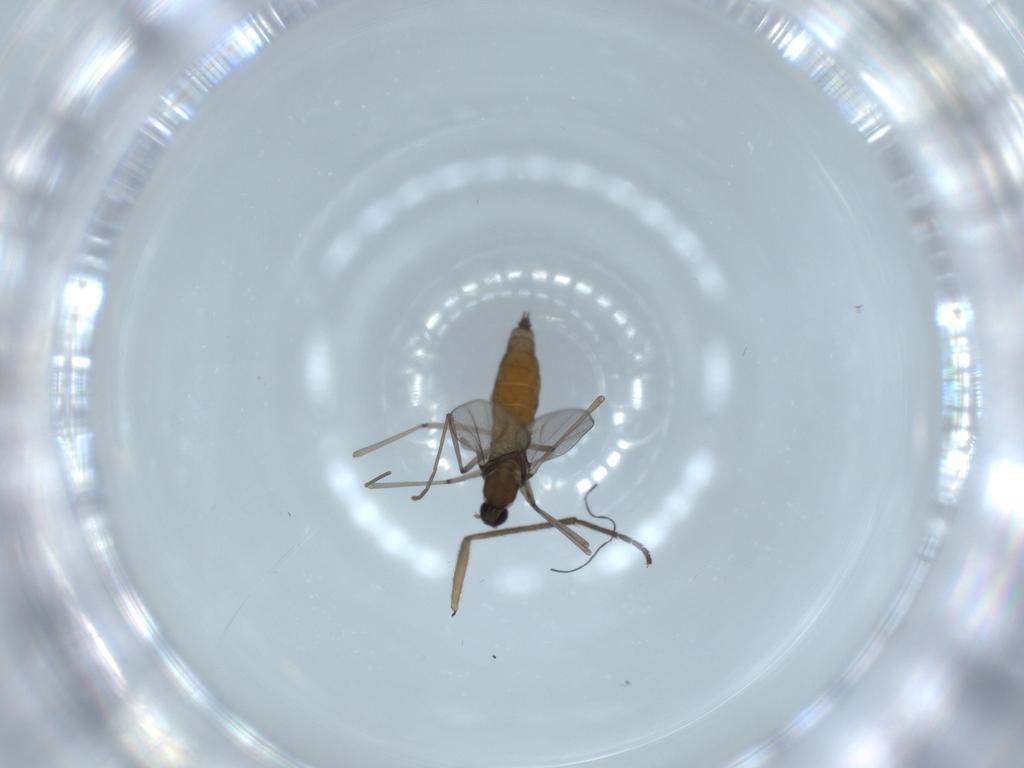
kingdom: Animalia
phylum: Arthropoda
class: Insecta
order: Diptera
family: Cecidomyiidae
